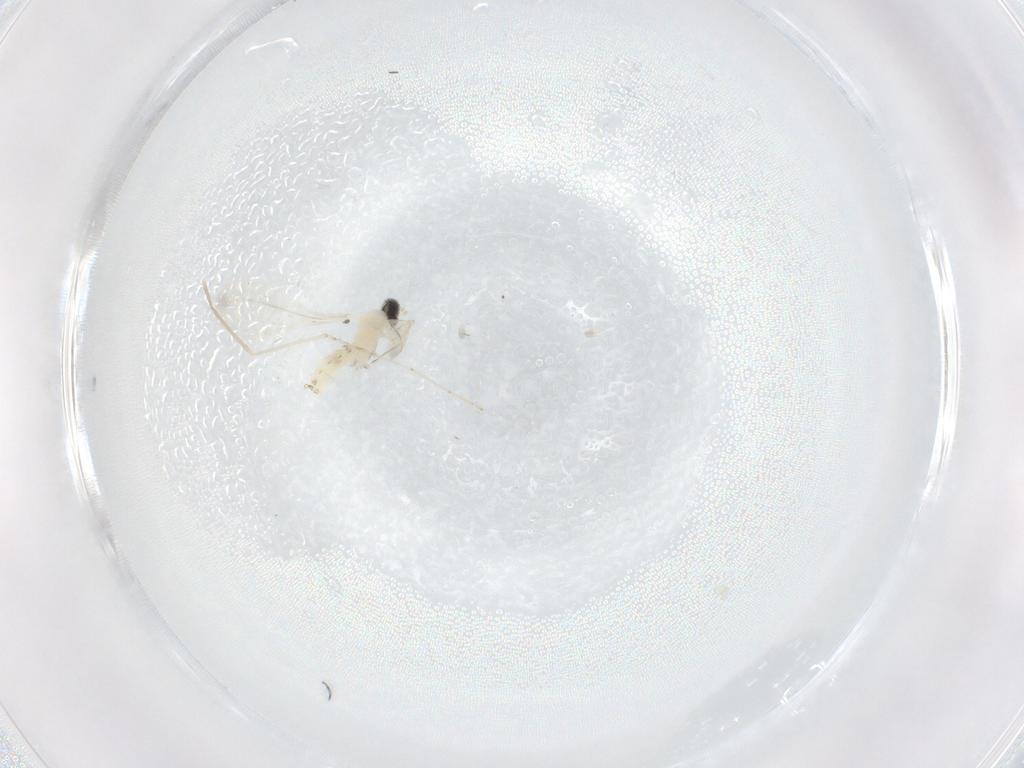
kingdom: Animalia
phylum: Arthropoda
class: Insecta
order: Diptera
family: Cecidomyiidae
